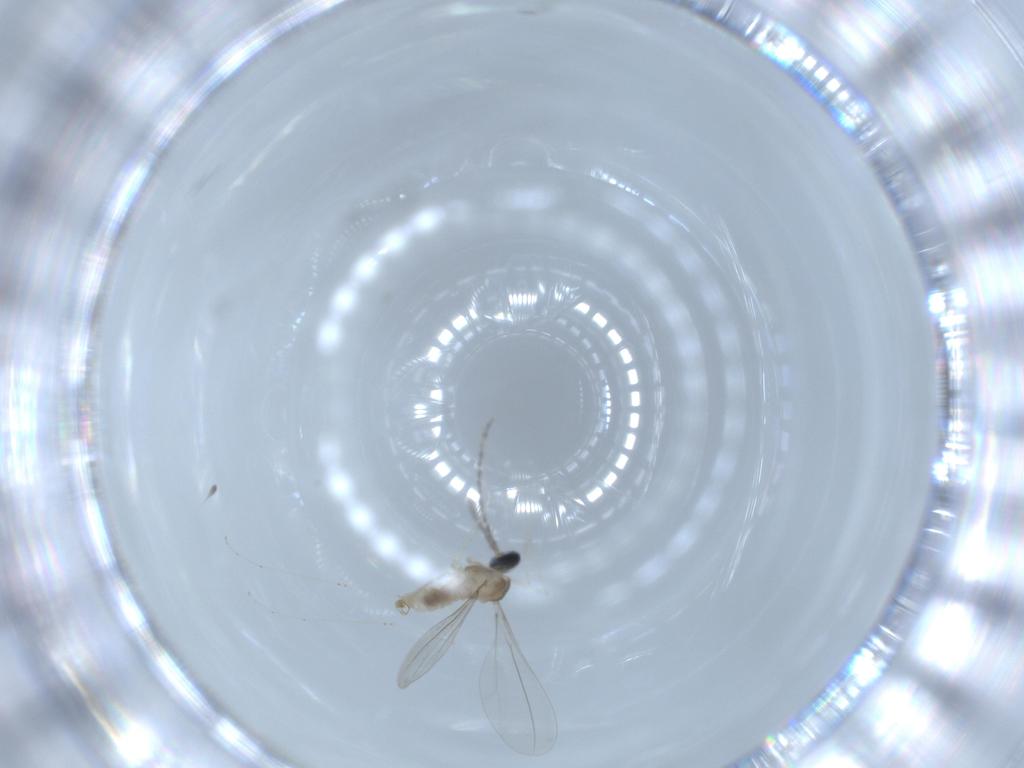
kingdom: Animalia
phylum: Arthropoda
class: Insecta
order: Diptera
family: Cecidomyiidae
